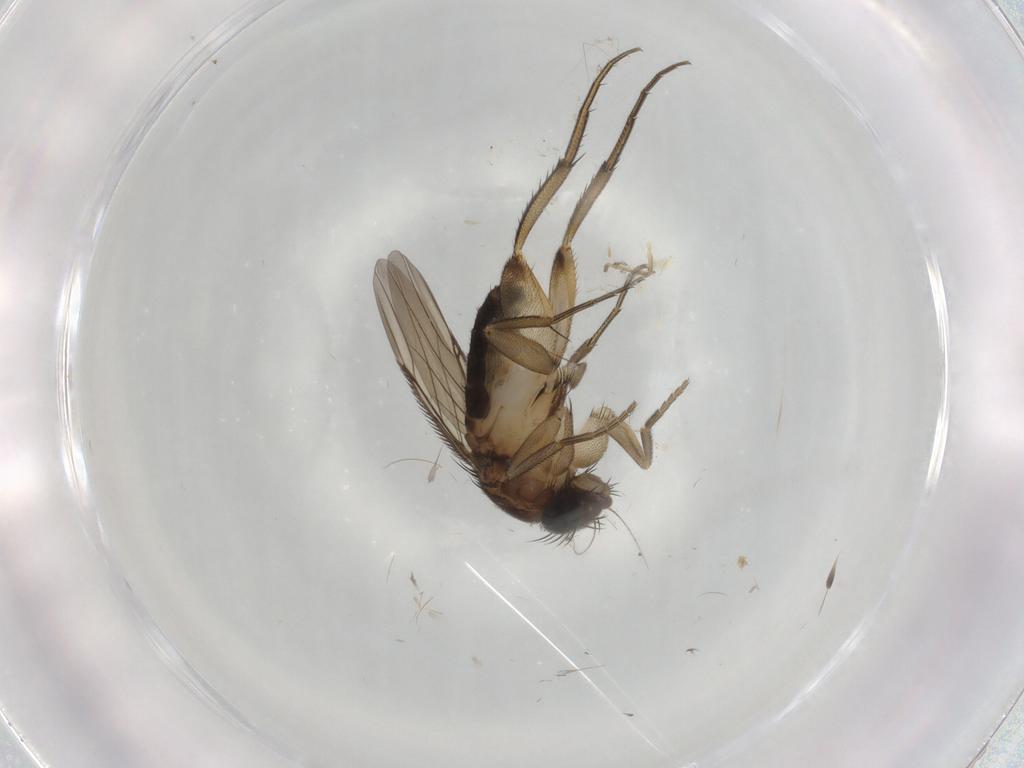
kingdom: Animalia
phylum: Arthropoda
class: Insecta
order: Diptera
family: Phoridae
